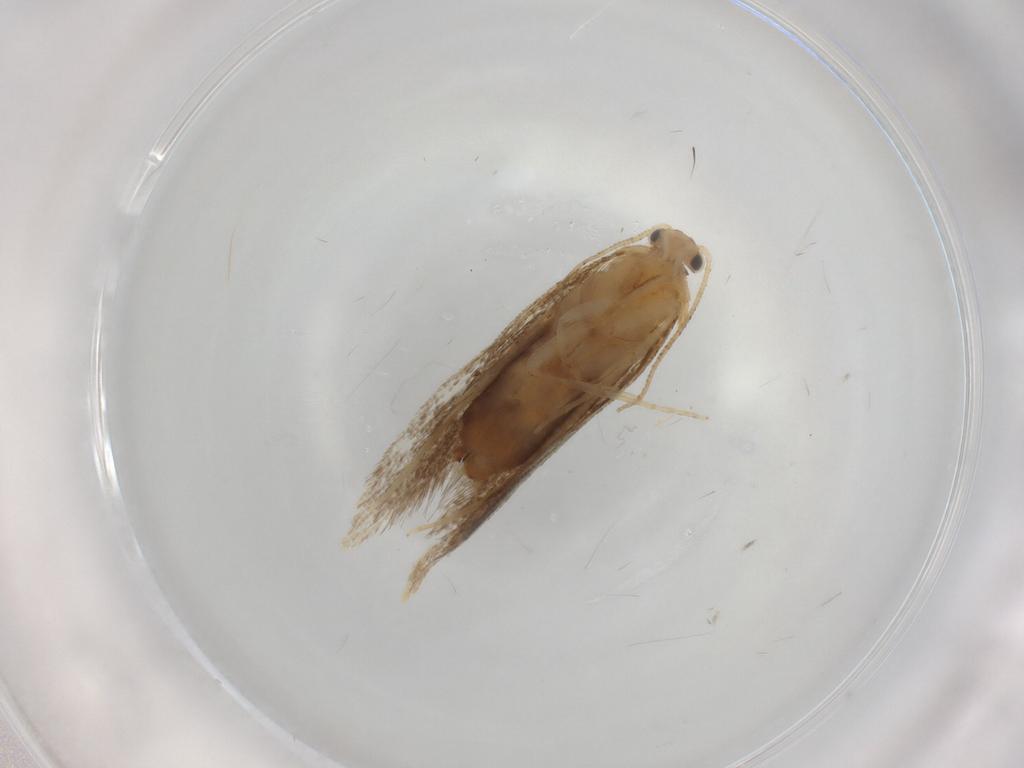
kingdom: Animalia
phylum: Arthropoda
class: Insecta
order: Lepidoptera
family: Dryadaulidae
